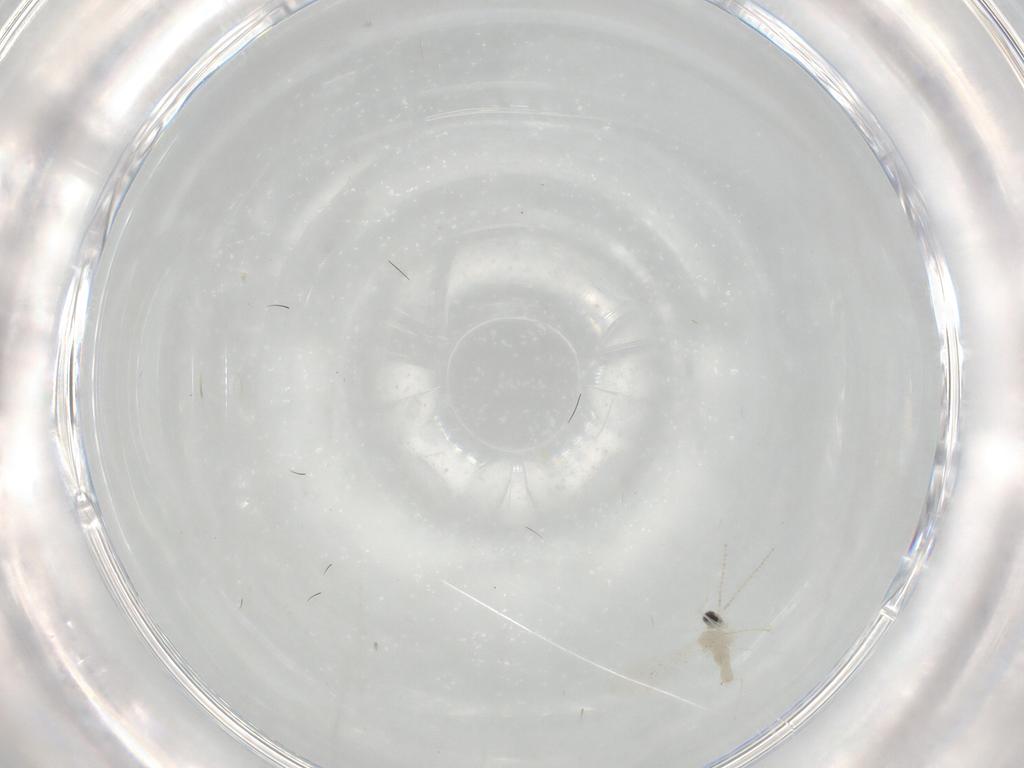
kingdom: Animalia
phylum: Arthropoda
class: Insecta
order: Diptera
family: Cecidomyiidae
